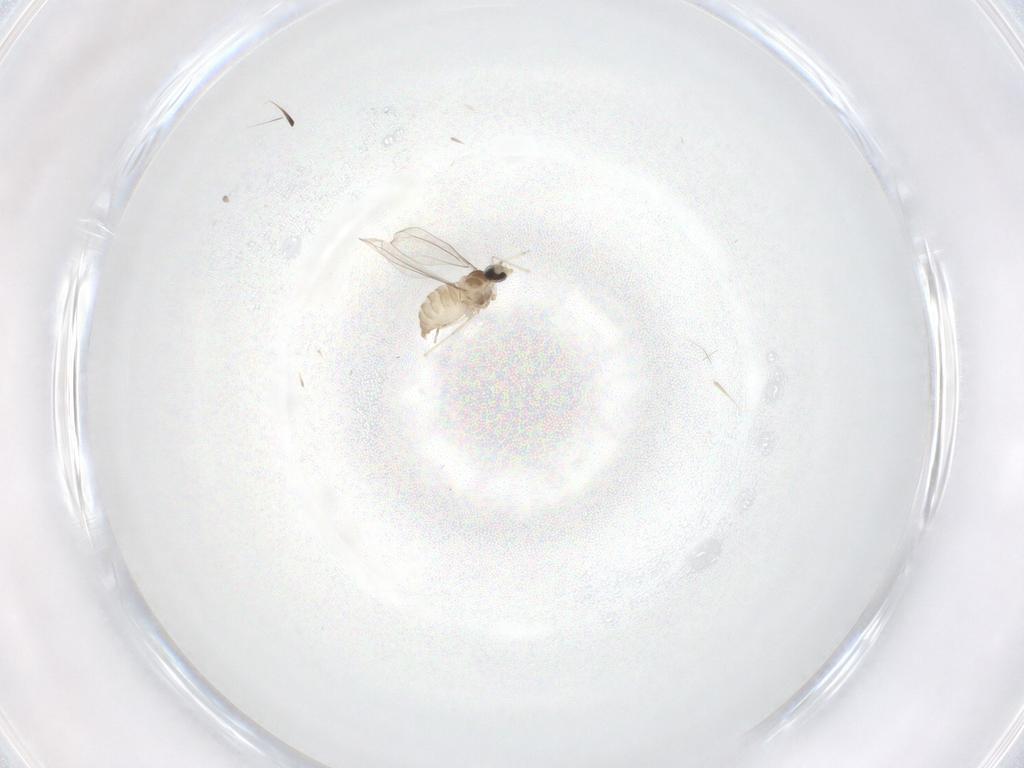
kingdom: Animalia
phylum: Arthropoda
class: Insecta
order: Diptera
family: Cecidomyiidae
